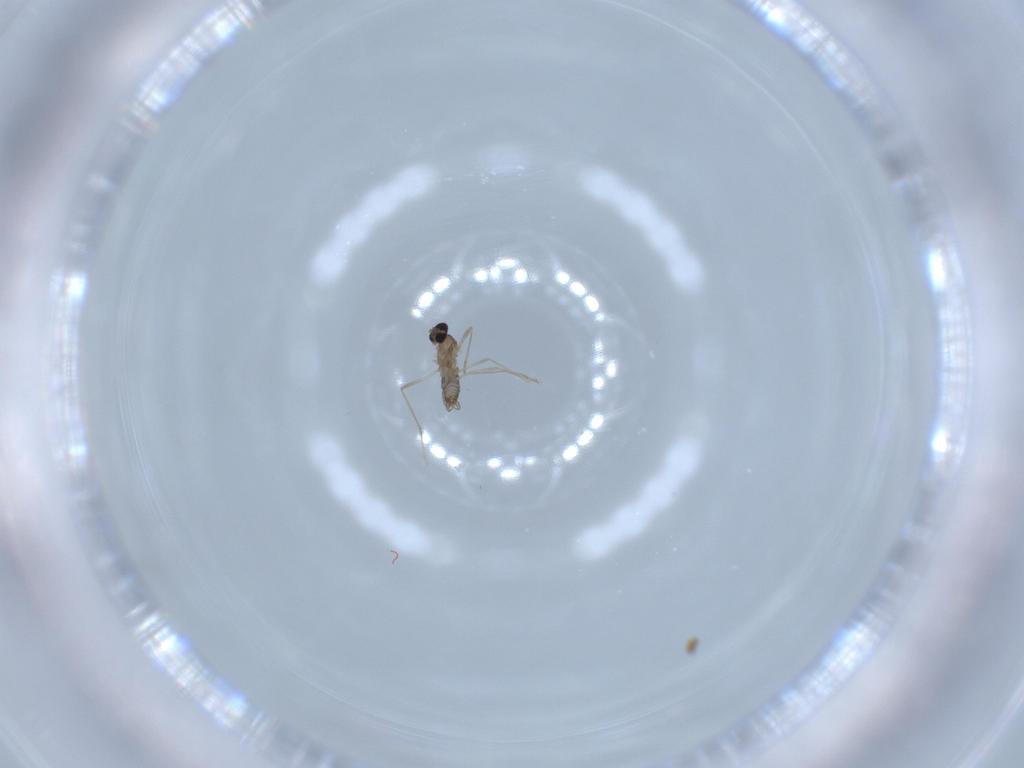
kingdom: Animalia
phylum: Arthropoda
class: Insecta
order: Diptera
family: Cecidomyiidae
